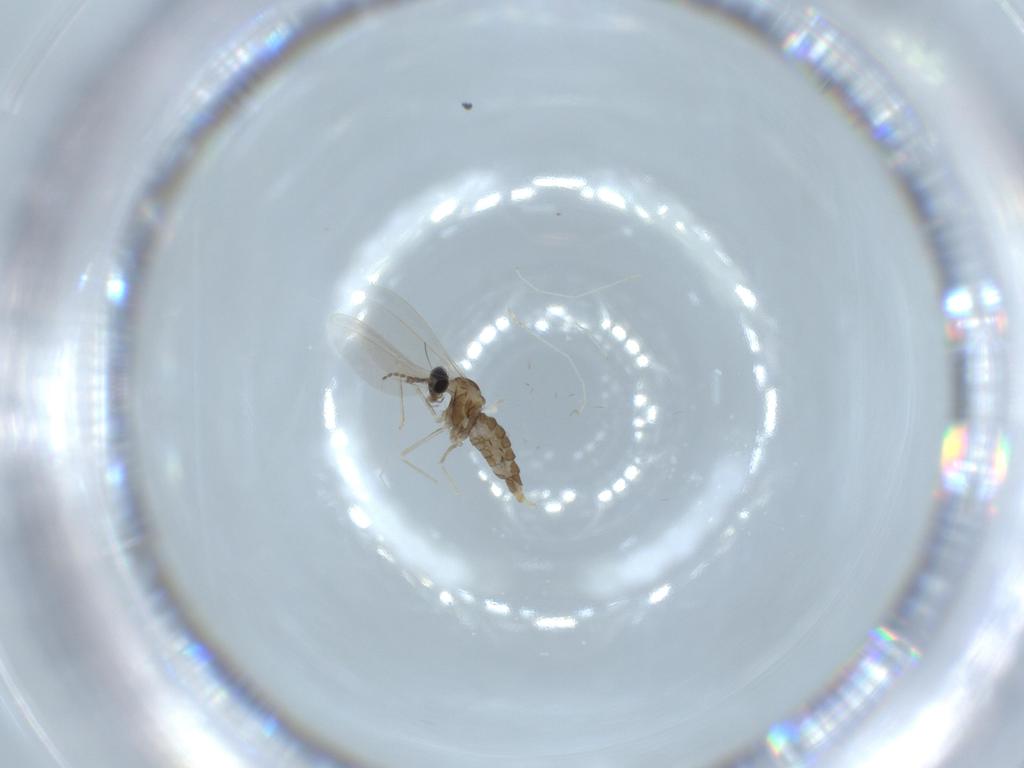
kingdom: Animalia
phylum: Arthropoda
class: Insecta
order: Diptera
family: Cecidomyiidae
